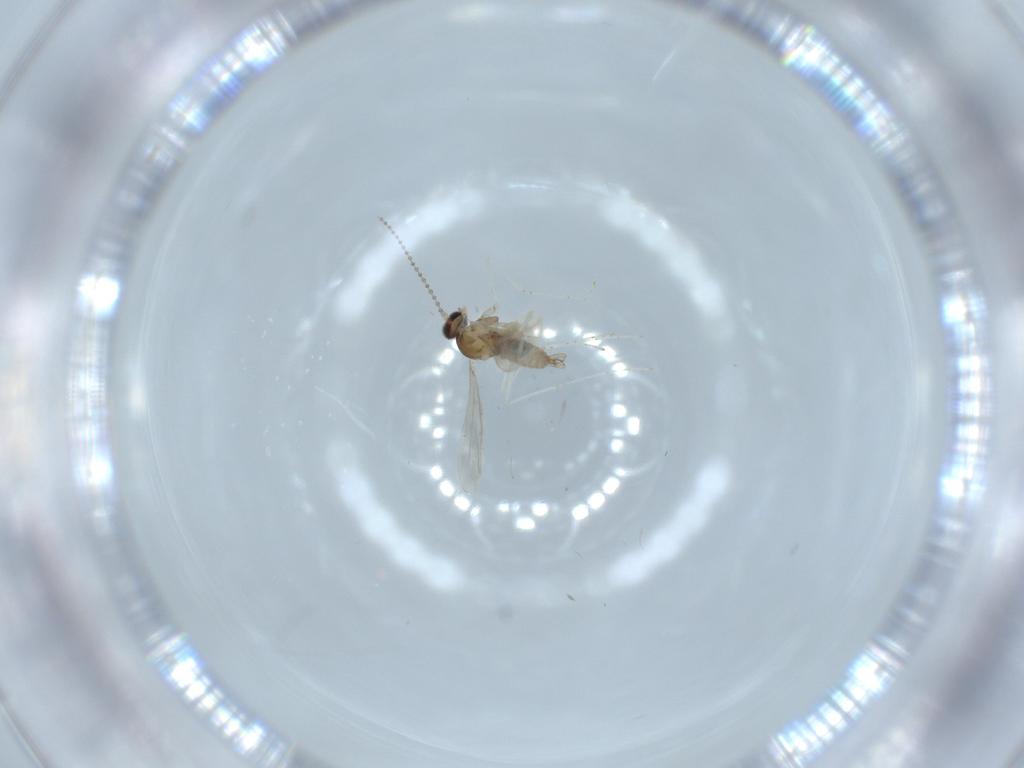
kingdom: Animalia
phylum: Arthropoda
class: Insecta
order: Diptera
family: Cecidomyiidae
